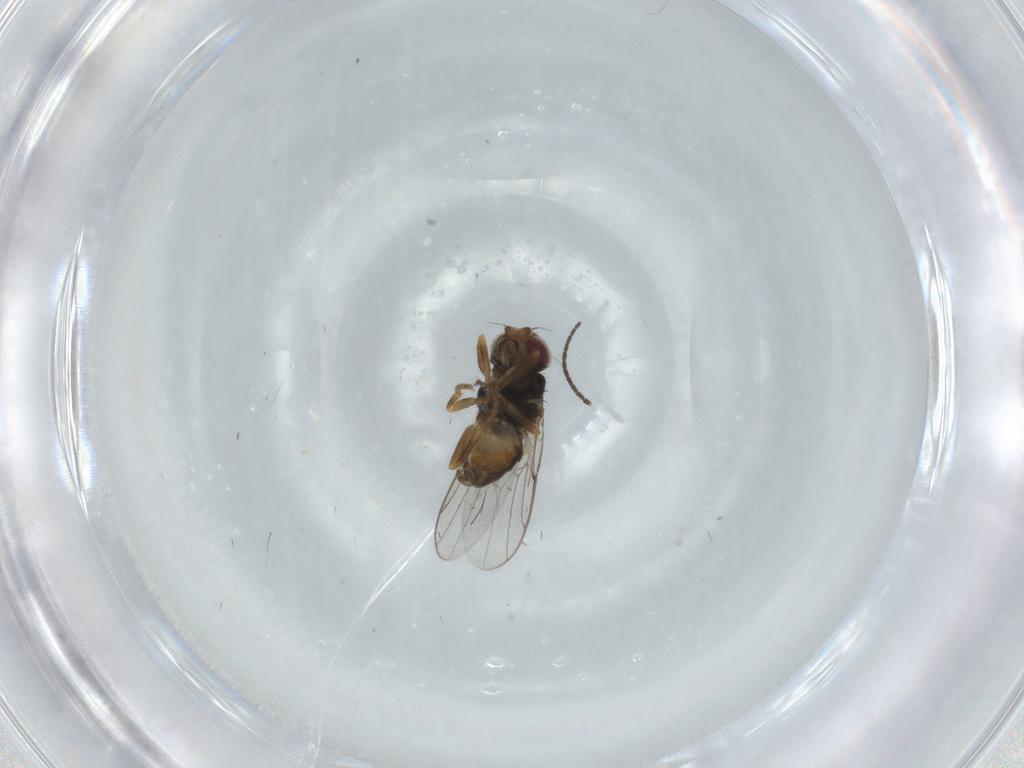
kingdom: Animalia
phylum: Arthropoda
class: Insecta
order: Diptera
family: Chloropidae
